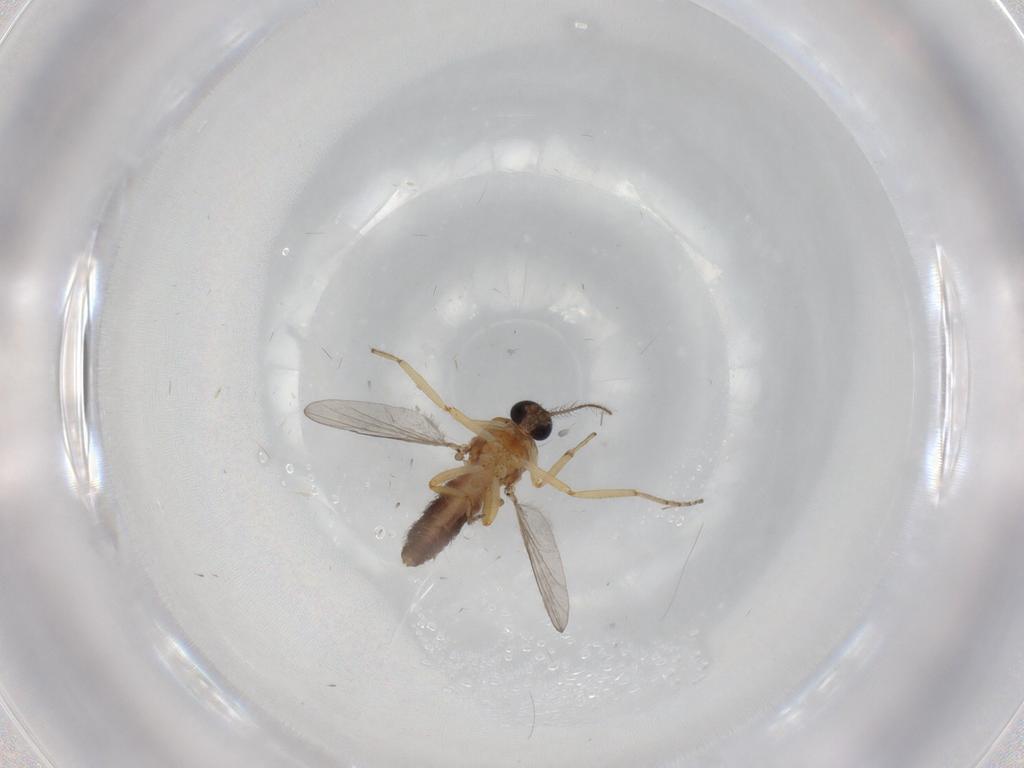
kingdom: Animalia
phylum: Arthropoda
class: Insecta
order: Diptera
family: Ceratopogonidae
